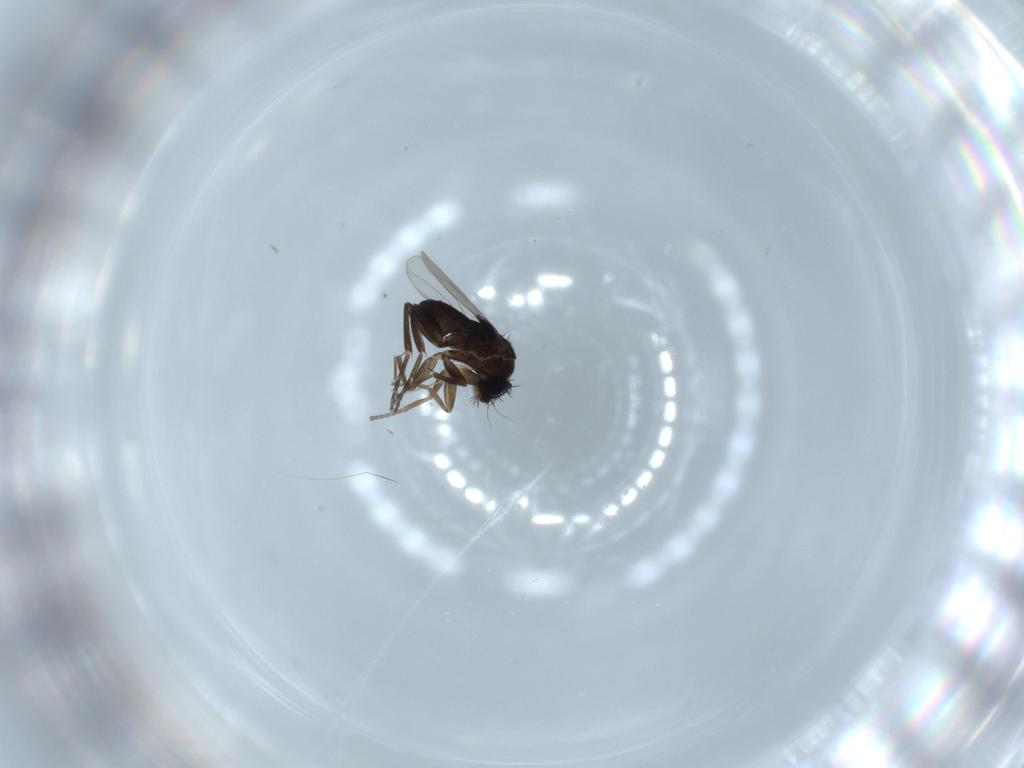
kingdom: Animalia
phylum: Arthropoda
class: Insecta
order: Diptera
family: Phoridae
